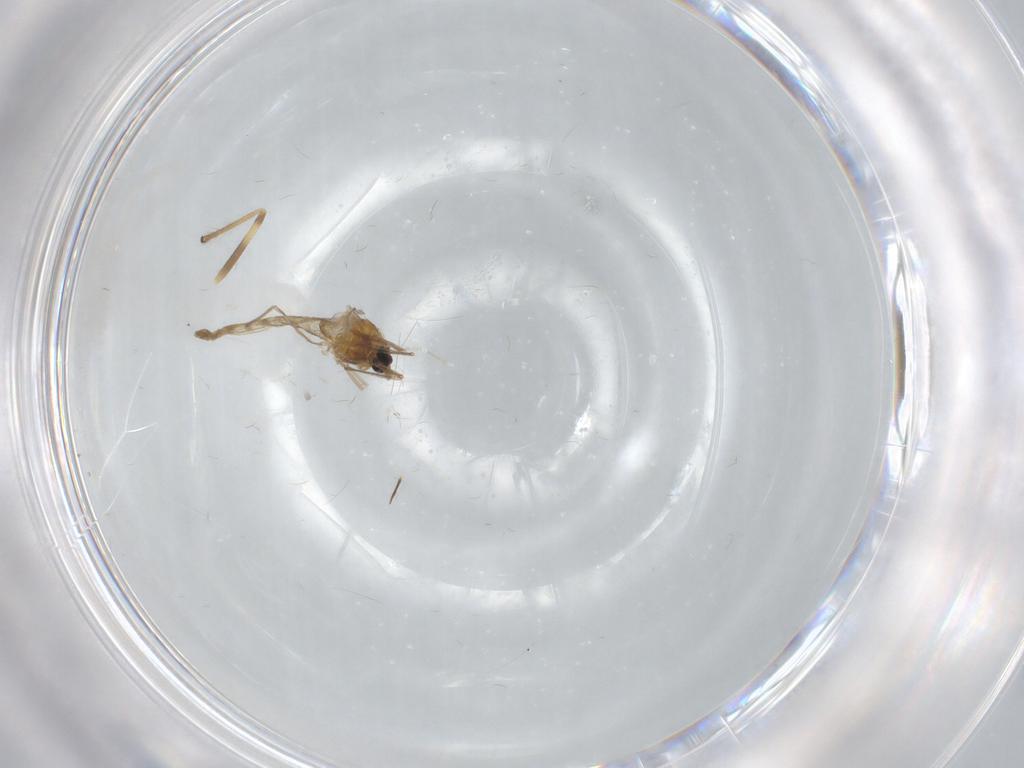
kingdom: Animalia
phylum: Arthropoda
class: Insecta
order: Diptera
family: Chironomidae
